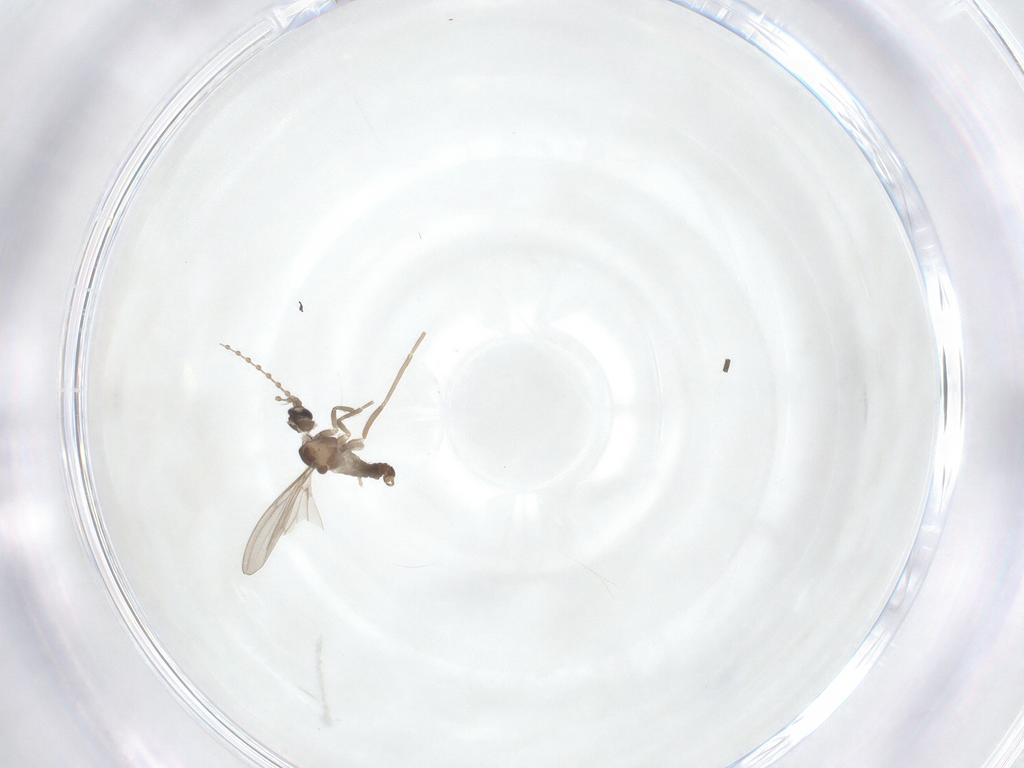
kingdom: Animalia
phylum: Arthropoda
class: Insecta
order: Diptera
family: Cecidomyiidae
